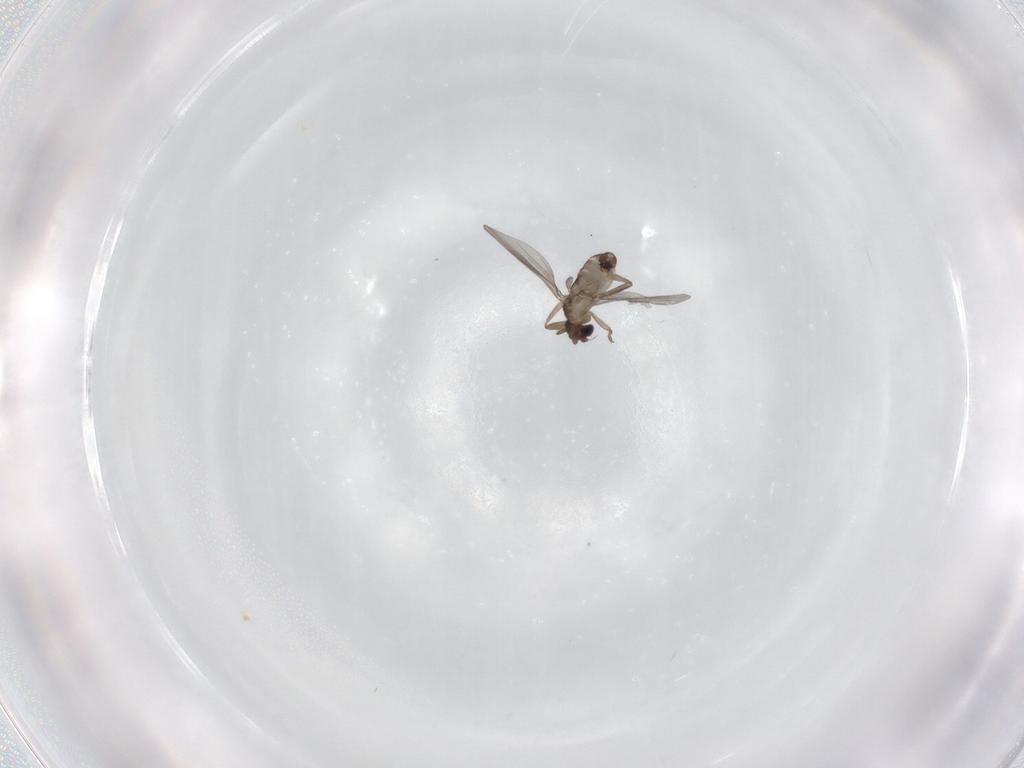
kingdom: Animalia
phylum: Arthropoda
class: Insecta
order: Diptera
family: Chironomidae
